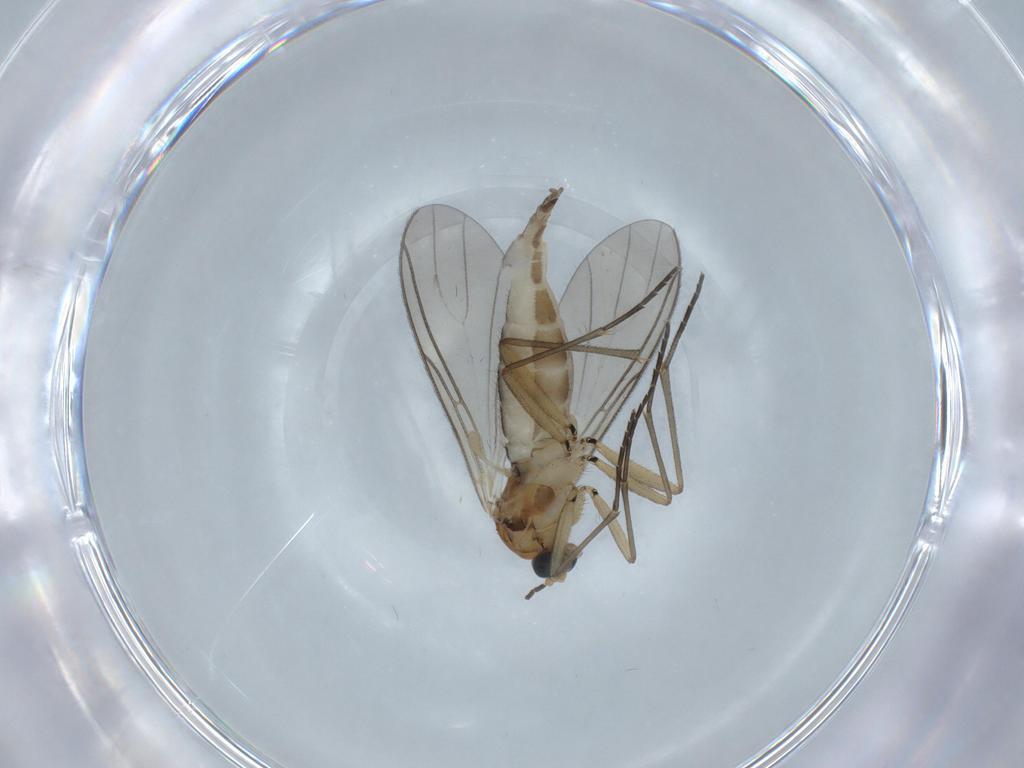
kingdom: Animalia
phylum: Arthropoda
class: Insecta
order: Diptera
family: Sciaridae
